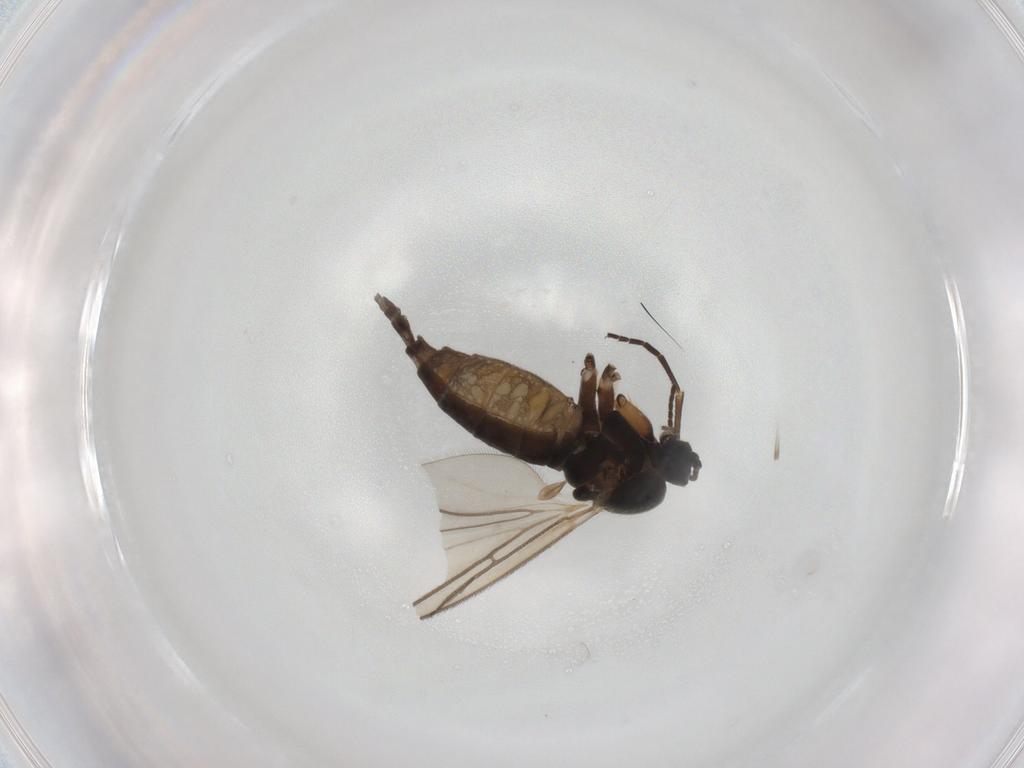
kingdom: Animalia
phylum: Arthropoda
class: Insecta
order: Diptera
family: Sciaridae
